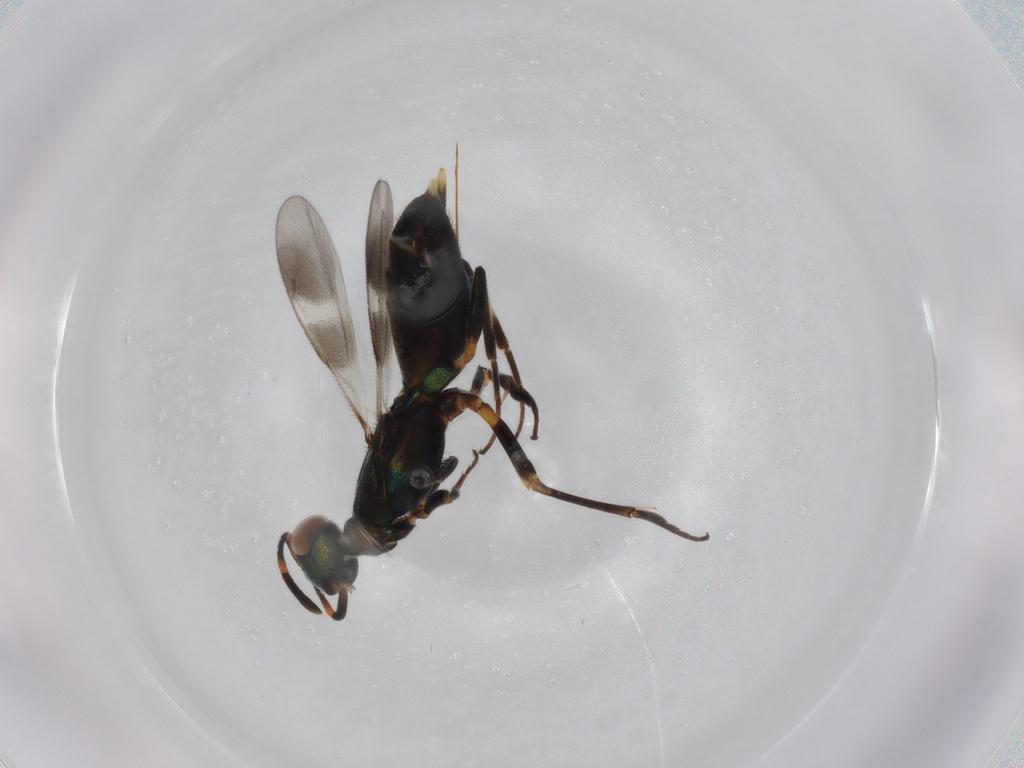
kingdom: Animalia
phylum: Arthropoda
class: Insecta
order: Hymenoptera
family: Eupelmidae
